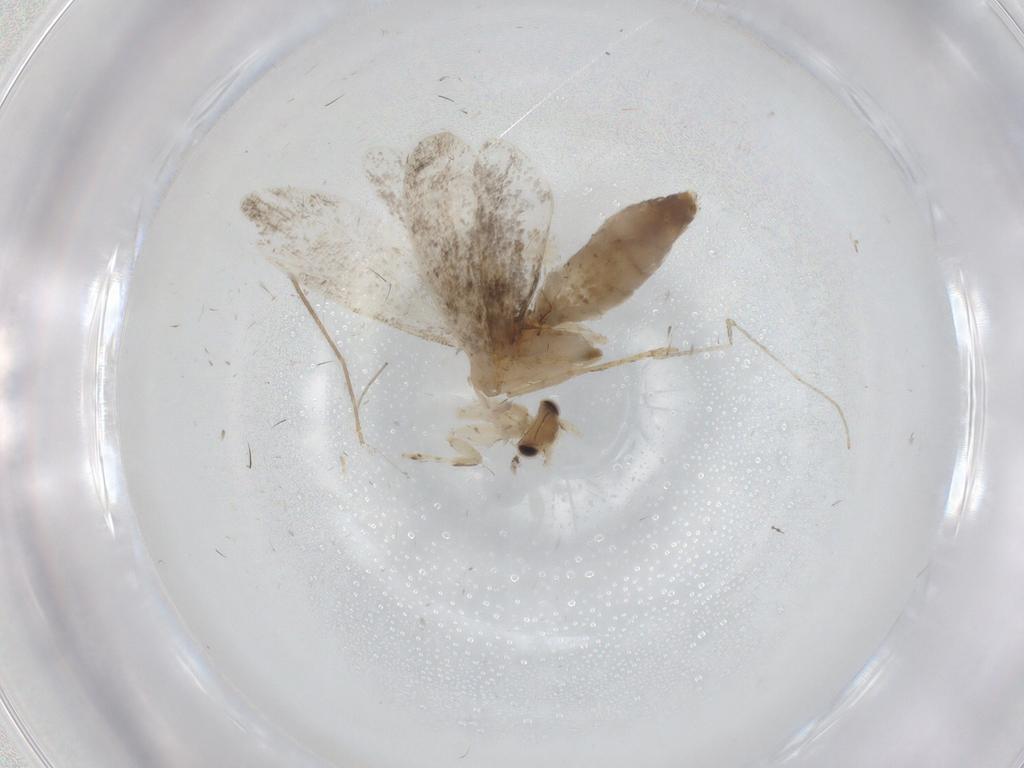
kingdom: Animalia
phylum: Arthropoda
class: Insecta
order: Lepidoptera
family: Tineidae
